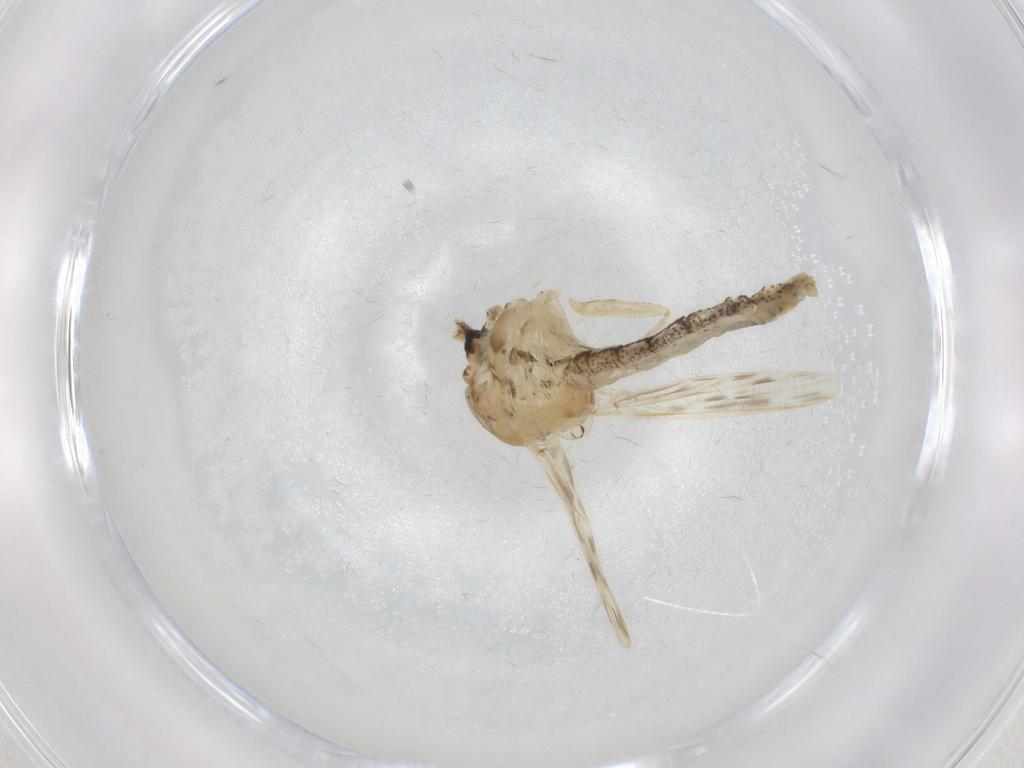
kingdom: Animalia
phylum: Arthropoda
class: Insecta
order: Diptera
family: Chaoboridae
